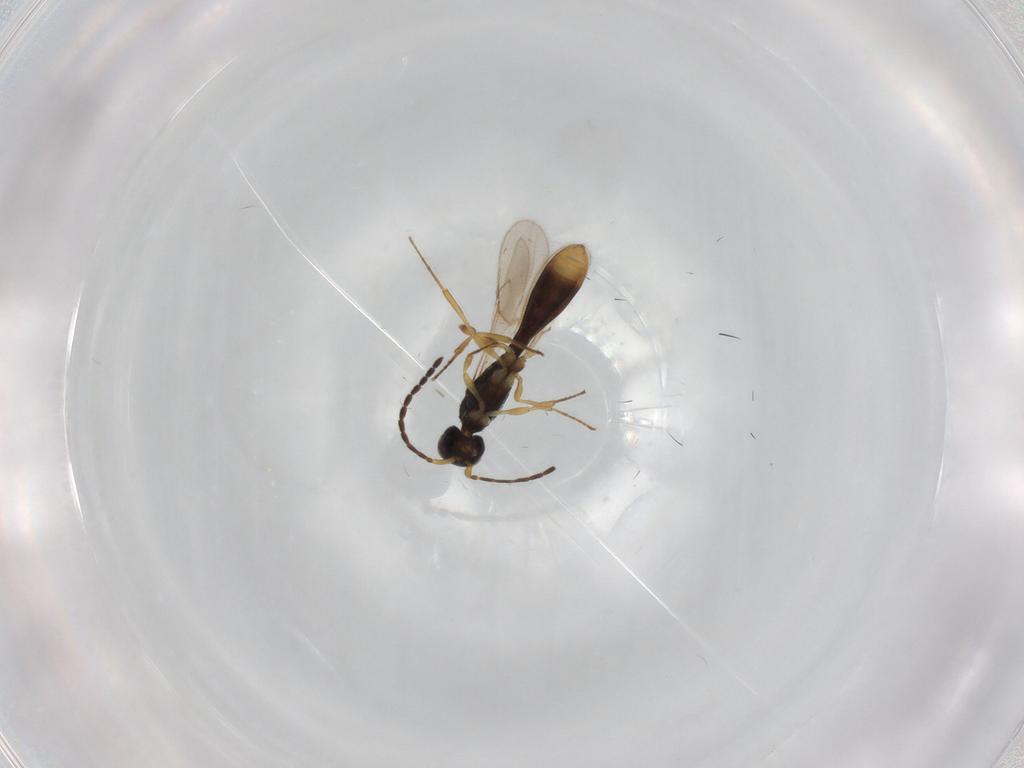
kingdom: Animalia
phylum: Arthropoda
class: Insecta
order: Hymenoptera
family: Scelionidae
